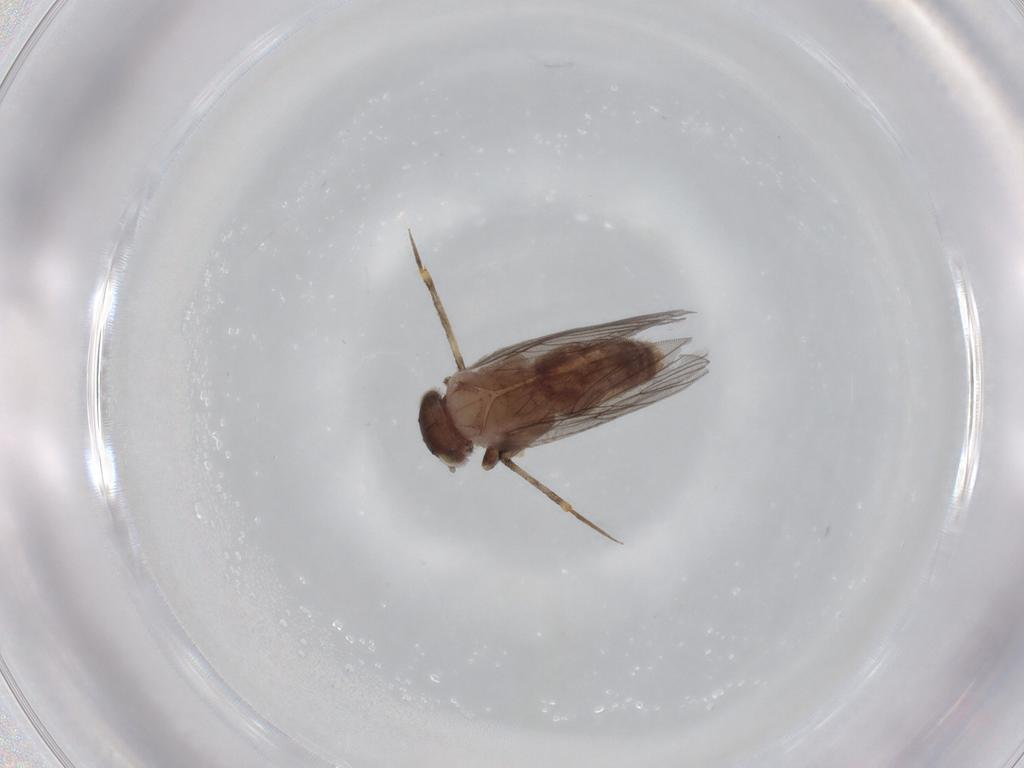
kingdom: Animalia
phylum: Arthropoda
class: Insecta
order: Psocodea
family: Lepidopsocidae
